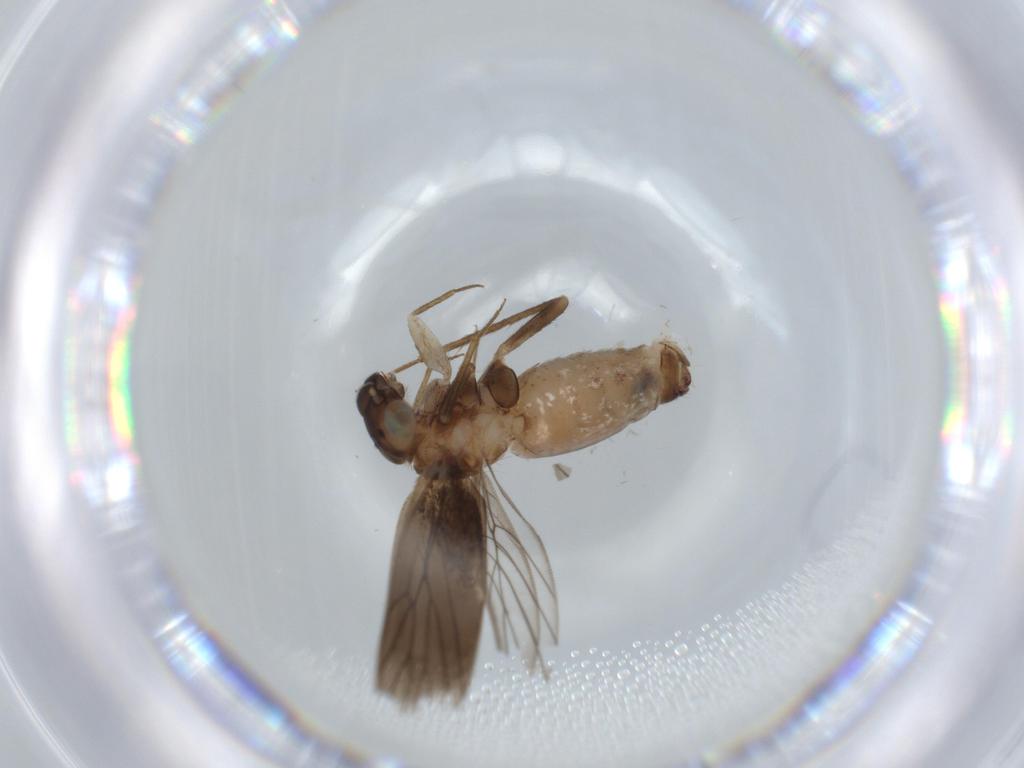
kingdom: Animalia
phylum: Arthropoda
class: Insecta
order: Psocodea
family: Lepidopsocidae
